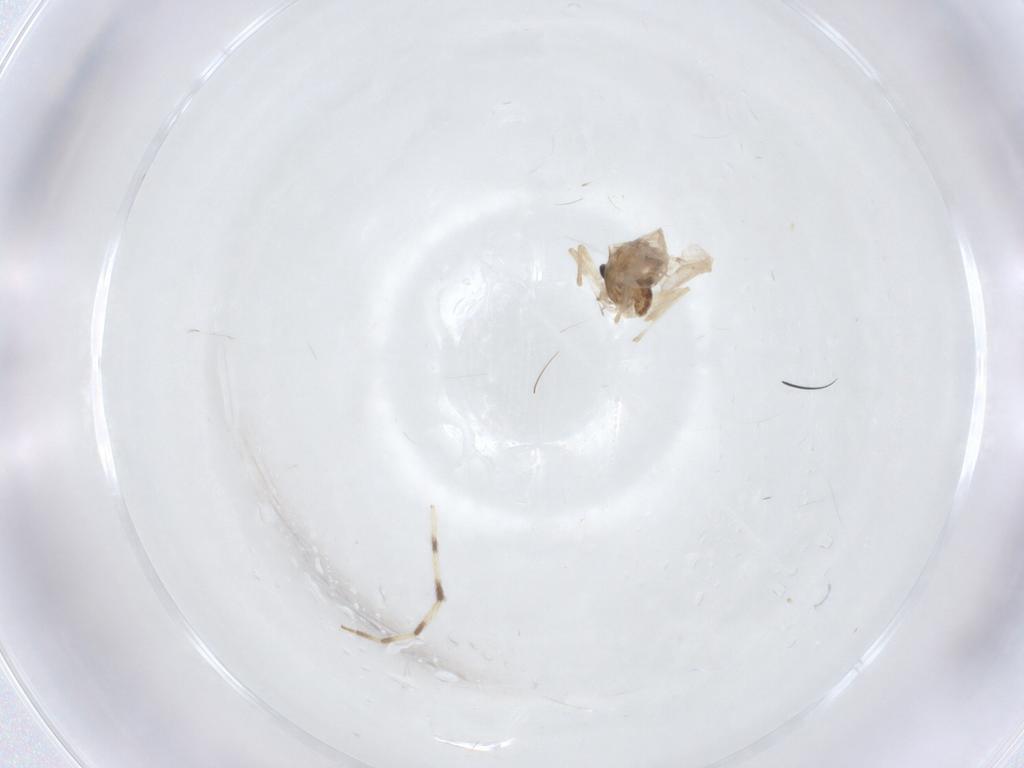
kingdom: Animalia
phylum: Arthropoda
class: Insecta
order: Diptera
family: Chironomidae
